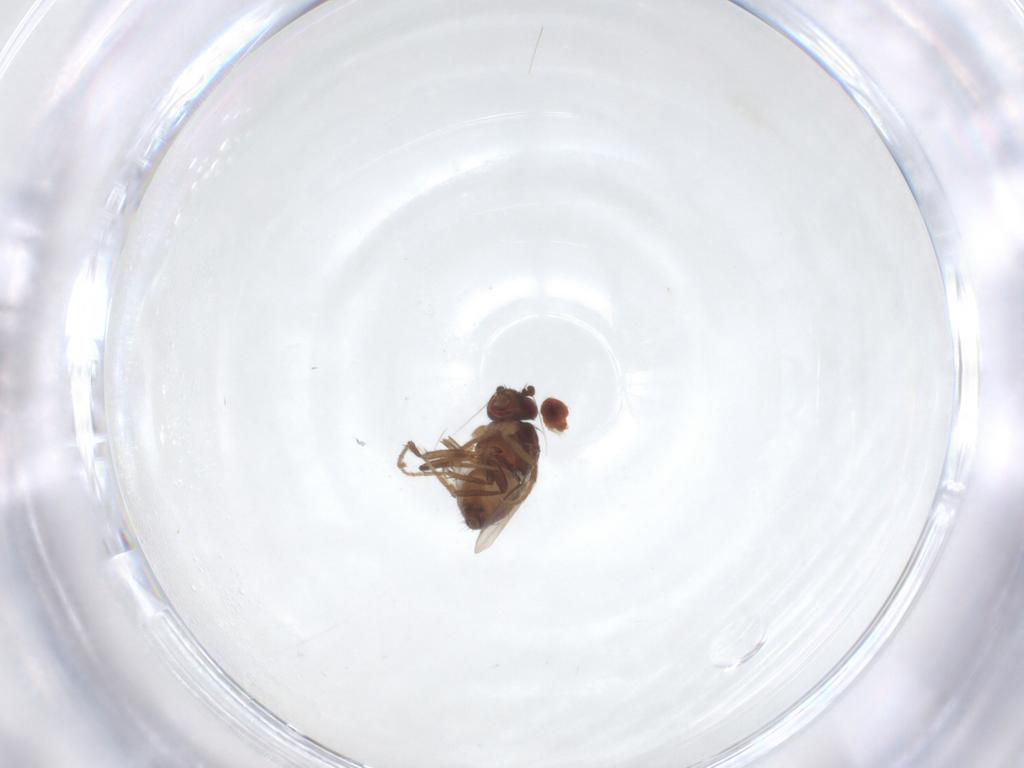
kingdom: Animalia
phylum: Arthropoda
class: Insecta
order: Diptera
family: Sphaeroceridae
